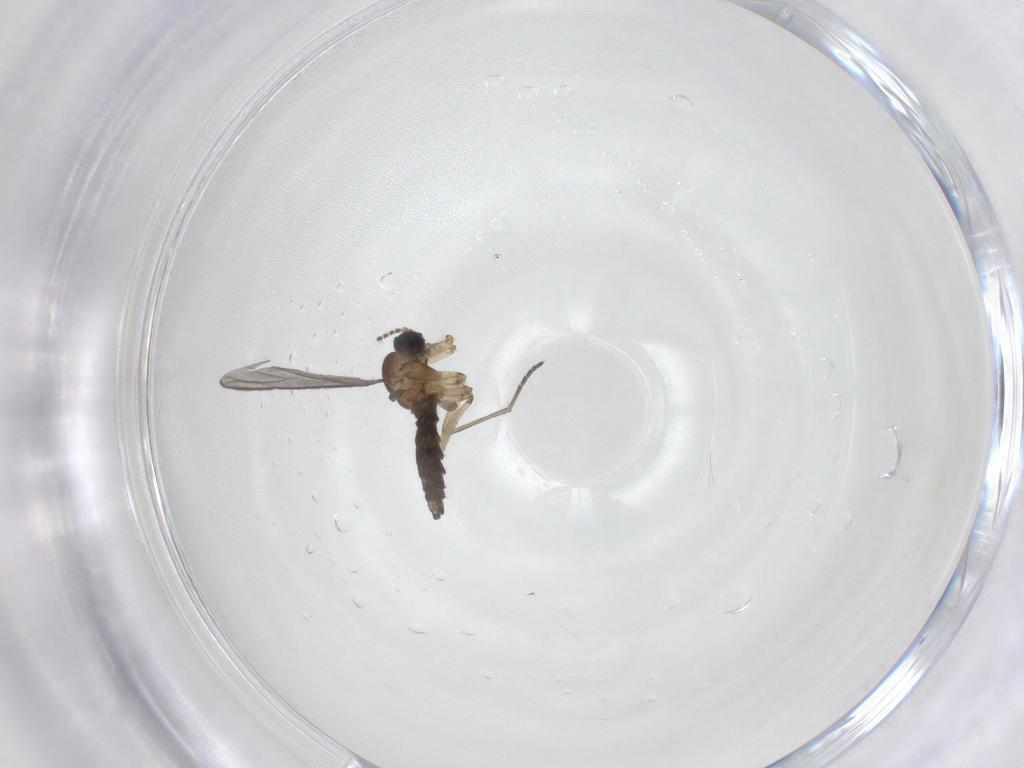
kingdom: Animalia
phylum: Arthropoda
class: Insecta
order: Diptera
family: Sciaridae
